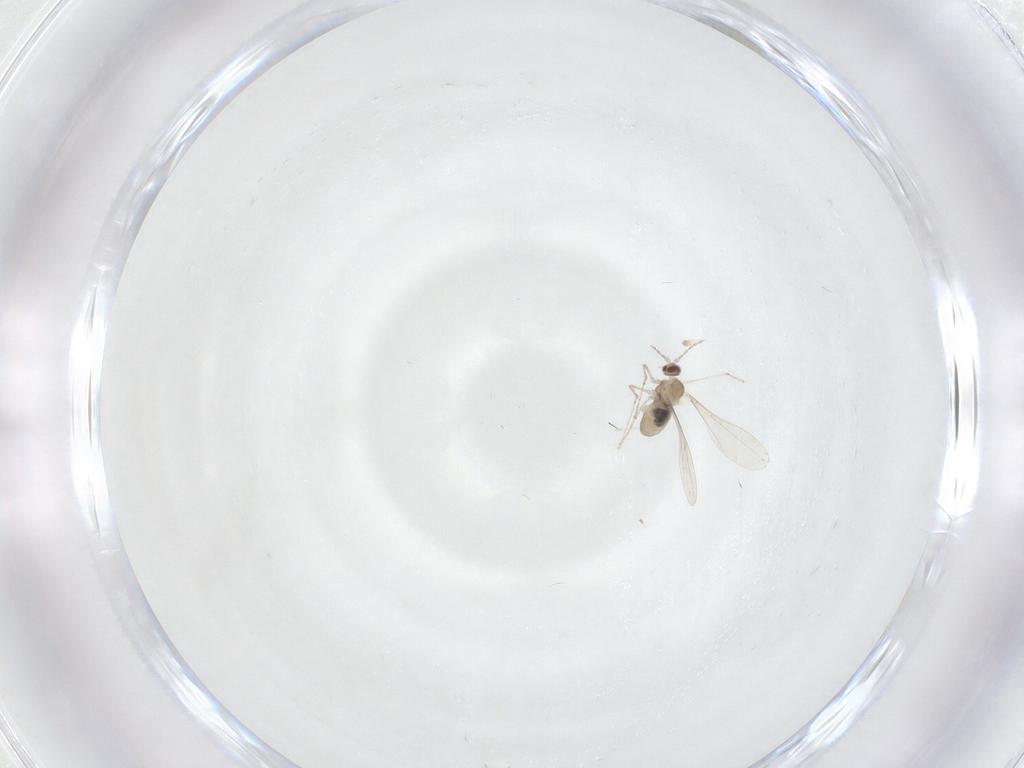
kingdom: Animalia
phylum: Arthropoda
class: Insecta
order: Diptera
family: Cecidomyiidae
